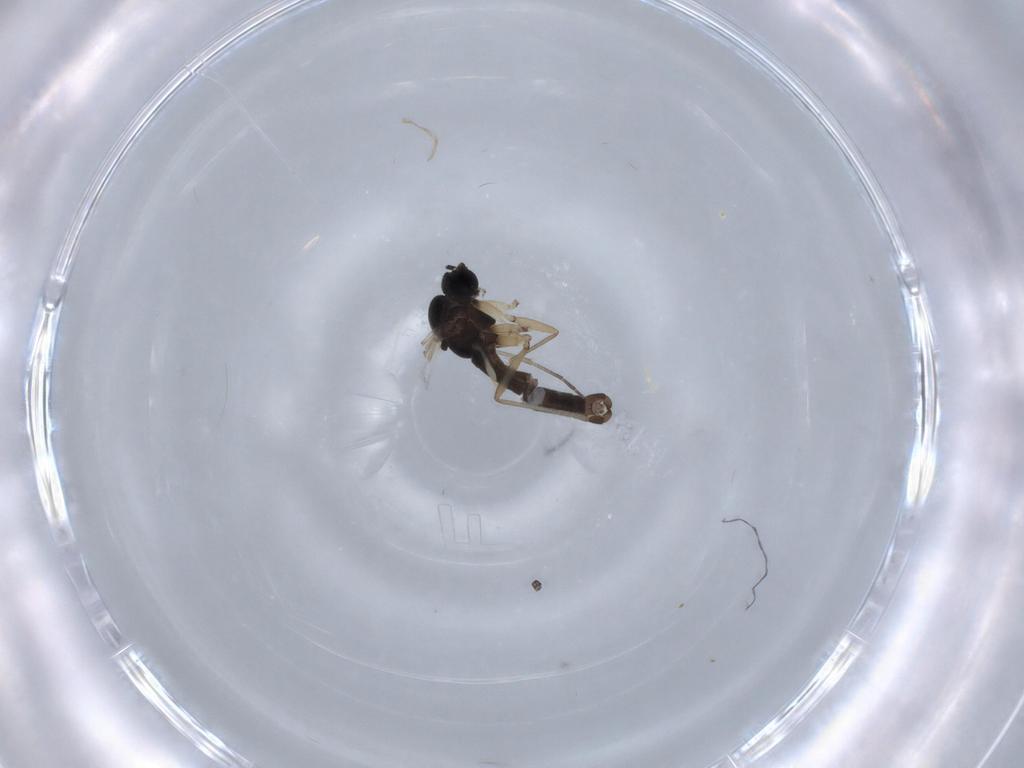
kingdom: Animalia
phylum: Arthropoda
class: Insecta
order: Diptera
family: Sciaridae
